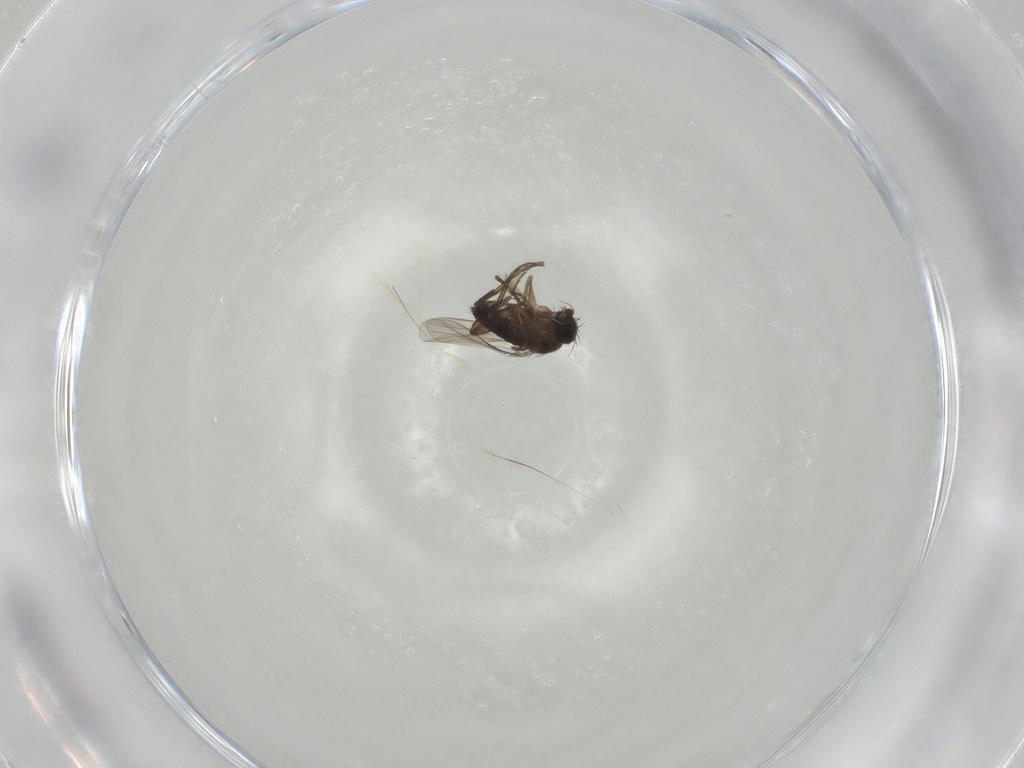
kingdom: Animalia
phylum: Arthropoda
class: Insecta
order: Diptera
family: Phoridae
